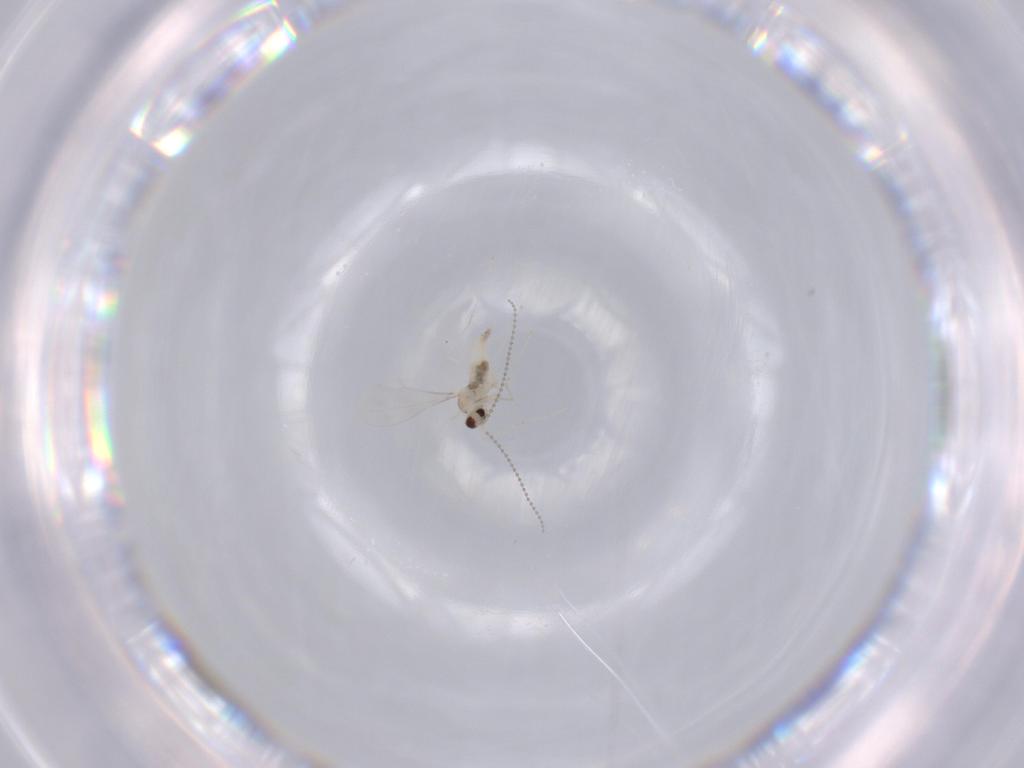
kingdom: Animalia
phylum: Arthropoda
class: Insecta
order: Diptera
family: Cecidomyiidae
